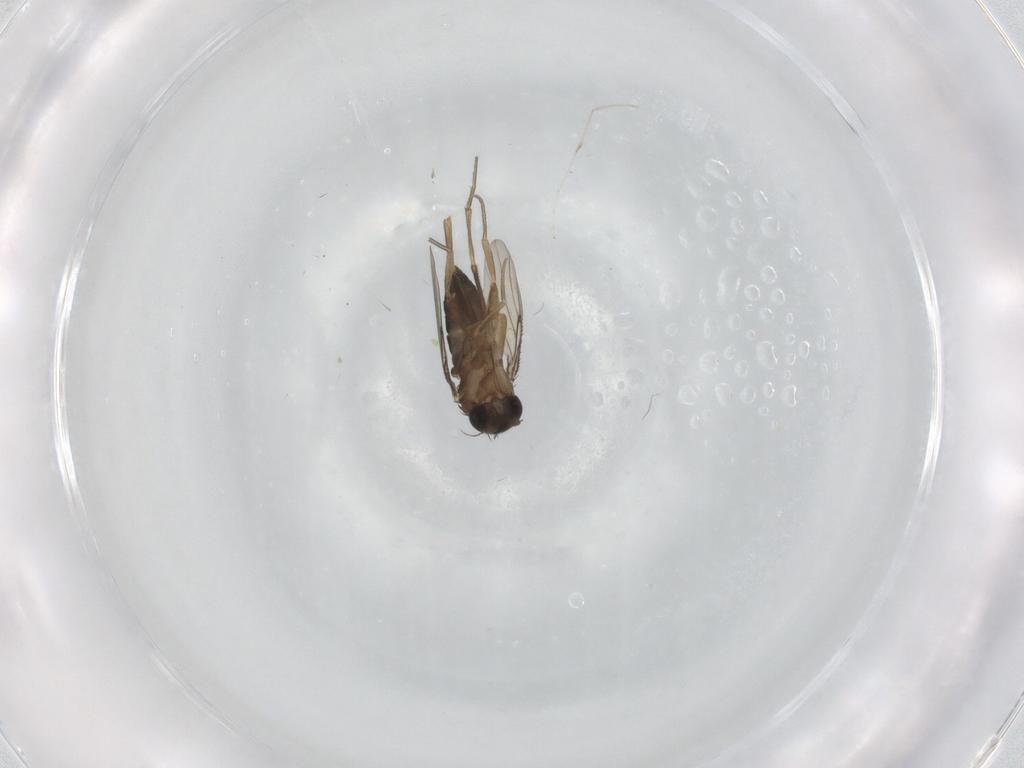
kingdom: Animalia
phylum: Arthropoda
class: Insecta
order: Diptera
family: Phoridae
